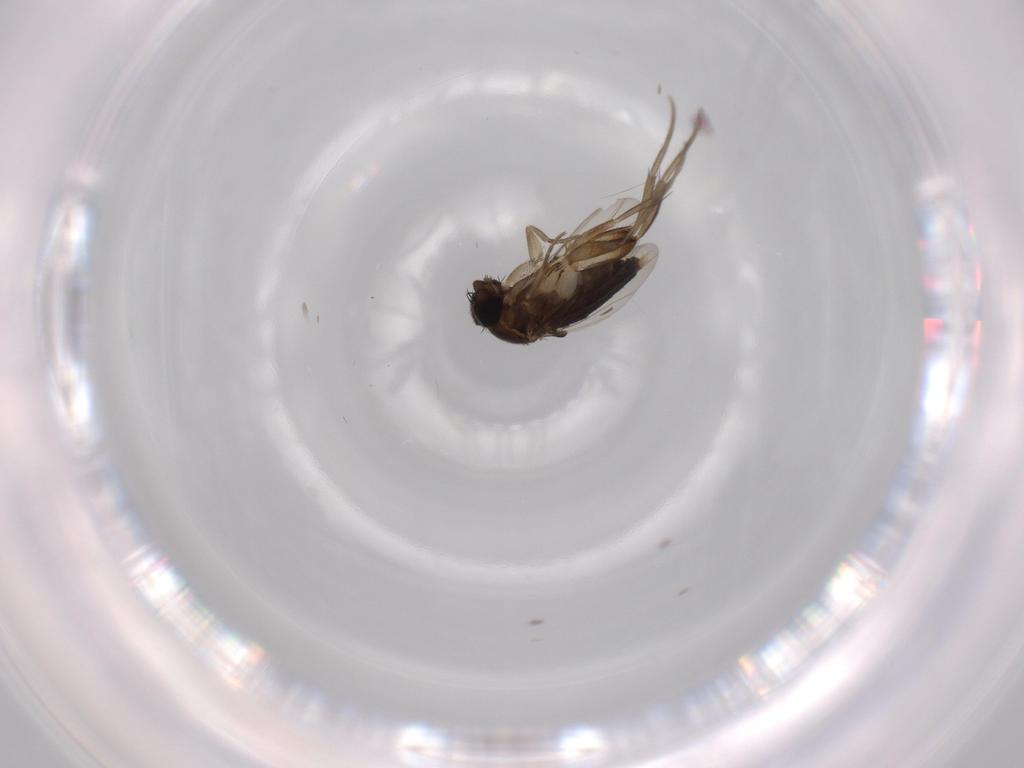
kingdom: Animalia
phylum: Arthropoda
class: Insecta
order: Diptera
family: Phoridae
